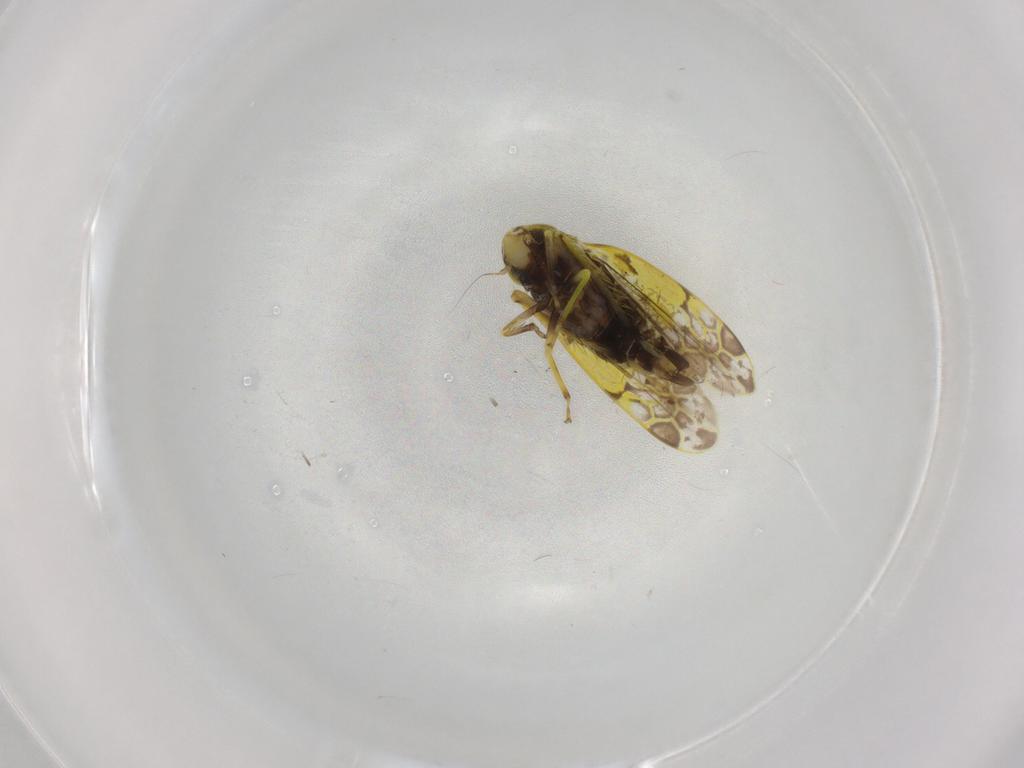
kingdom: Animalia
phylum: Arthropoda
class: Insecta
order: Hemiptera
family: Cicadellidae
